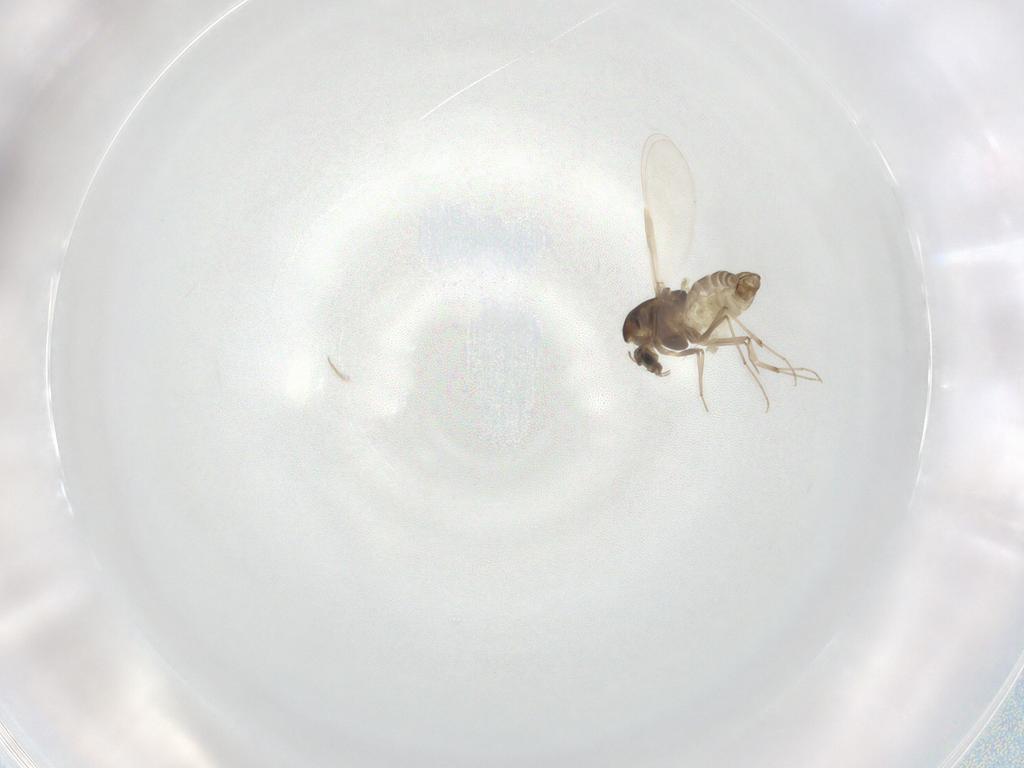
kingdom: Animalia
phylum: Arthropoda
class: Insecta
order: Diptera
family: Chironomidae
